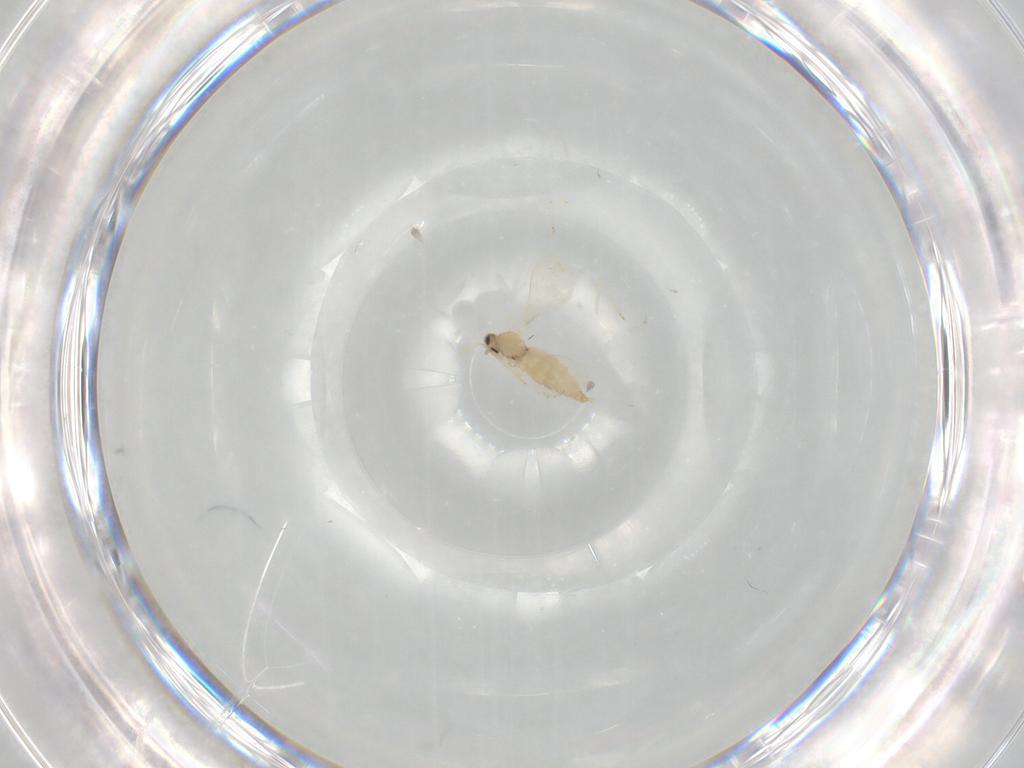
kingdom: Animalia
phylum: Arthropoda
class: Insecta
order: Diptera
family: Cecidomyiidae
